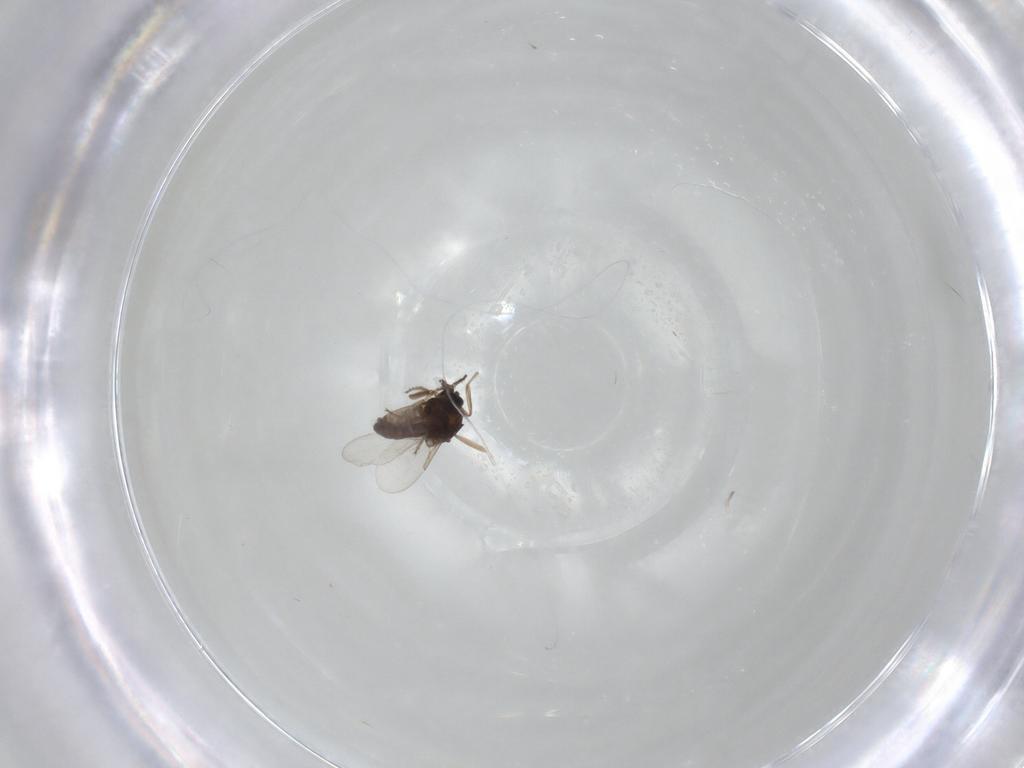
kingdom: Animalia
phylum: Arthropoda
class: Insecta
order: Diptera
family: Ceratopogonidae
